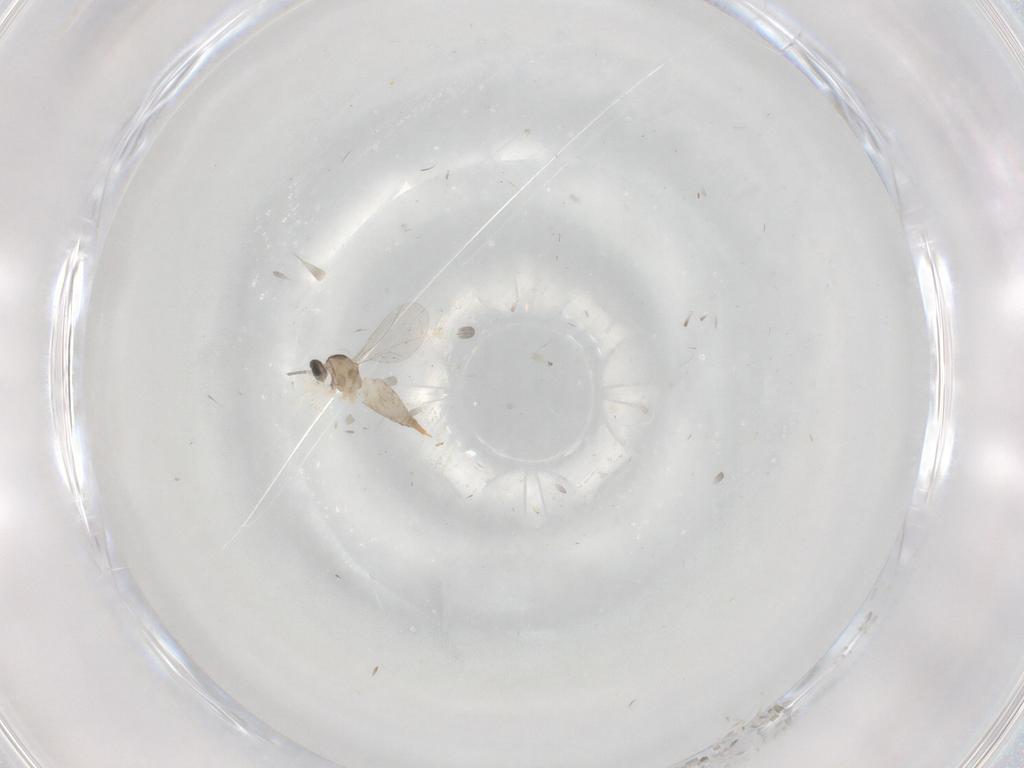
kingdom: Animalia
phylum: Arthropoda
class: Insecta
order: Diptera
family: Cecidomyiidae
